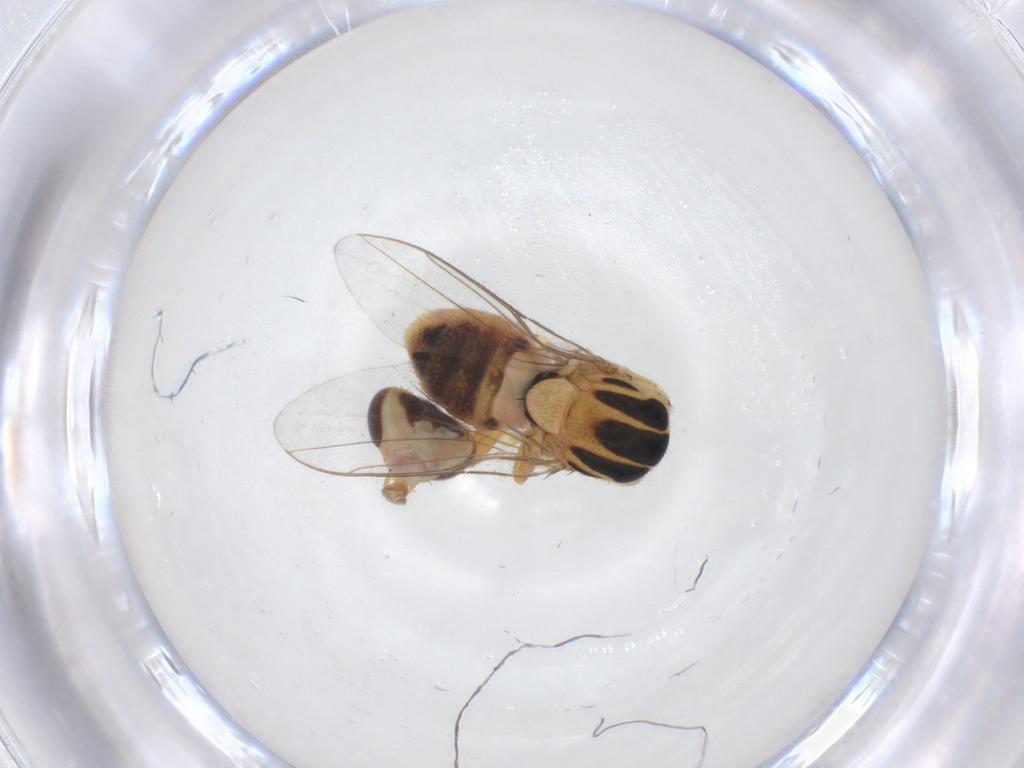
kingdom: Animalia
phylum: Arthropoda
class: Insecta
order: Diptera
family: Chloropidae
